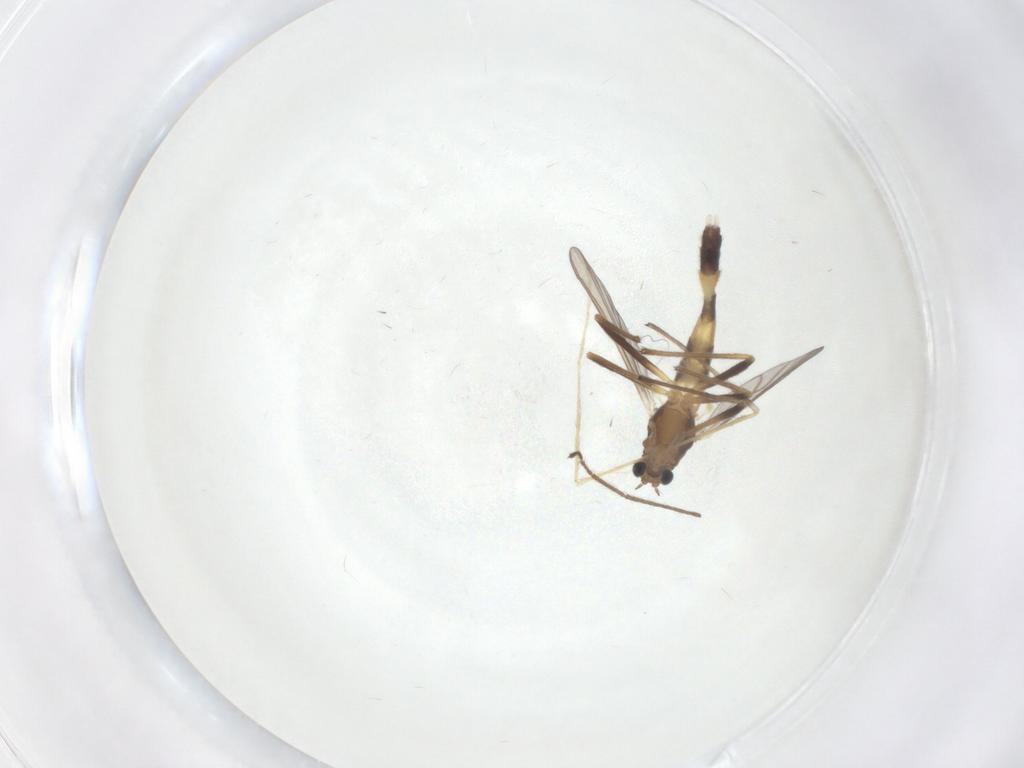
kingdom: Animalia
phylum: Arthropoda
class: Insecta
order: Diptera
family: Chironomidae
